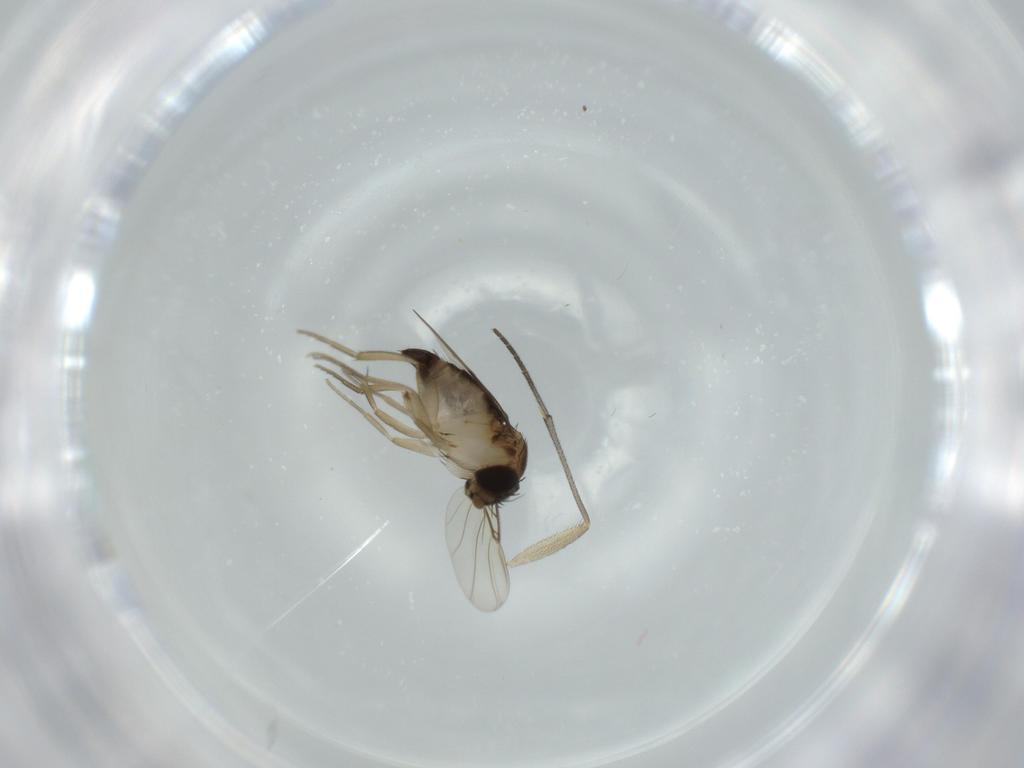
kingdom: Animalia
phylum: Arthropoda
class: Insecta
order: Diptera
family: Phoridae
